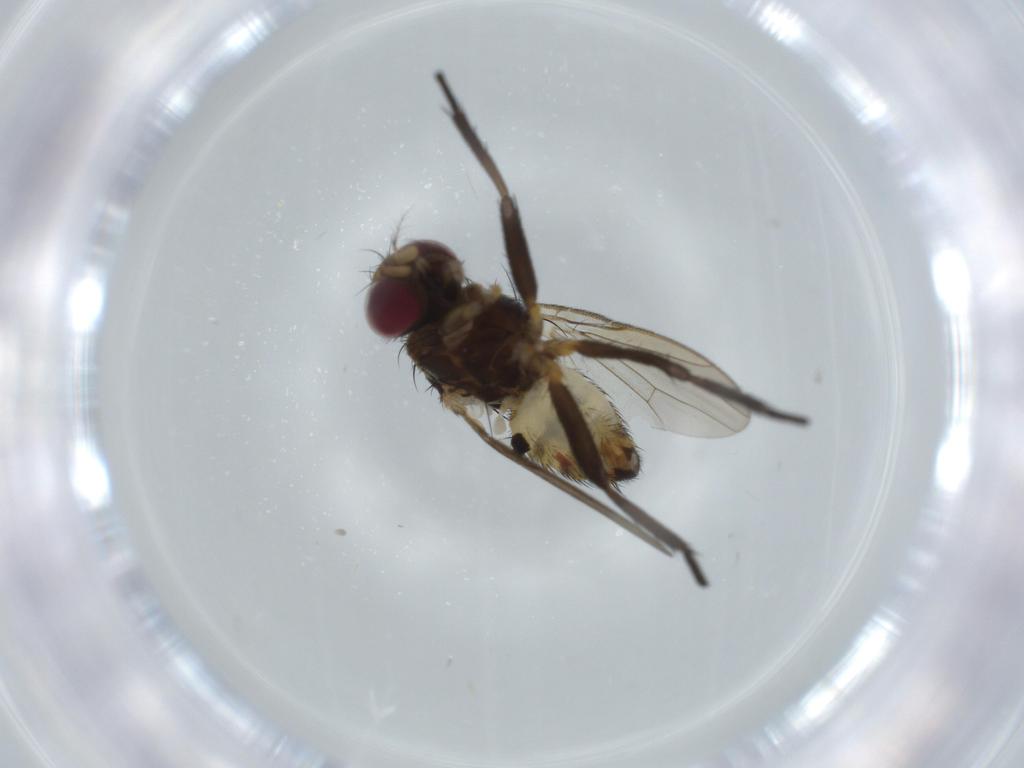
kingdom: Animalia
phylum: Arthropoda
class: Insecta
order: Diptera
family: Anthomyiidae
